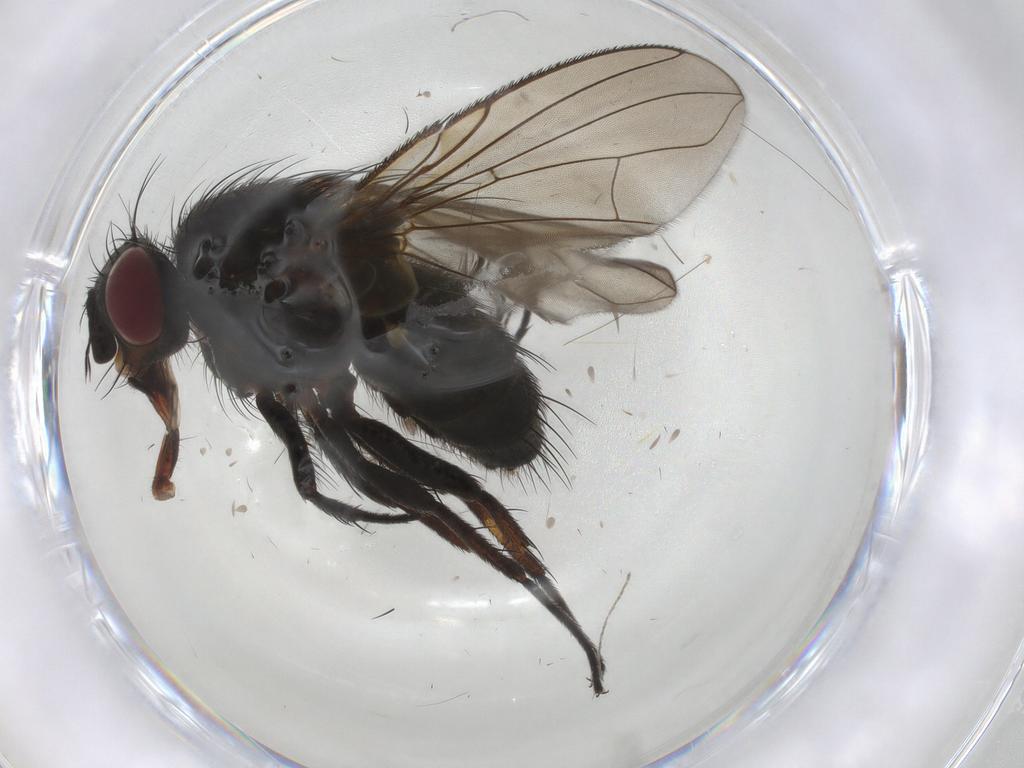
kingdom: Animalia
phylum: Arthropoda
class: Insecta
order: Diptera
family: Tachinidae
